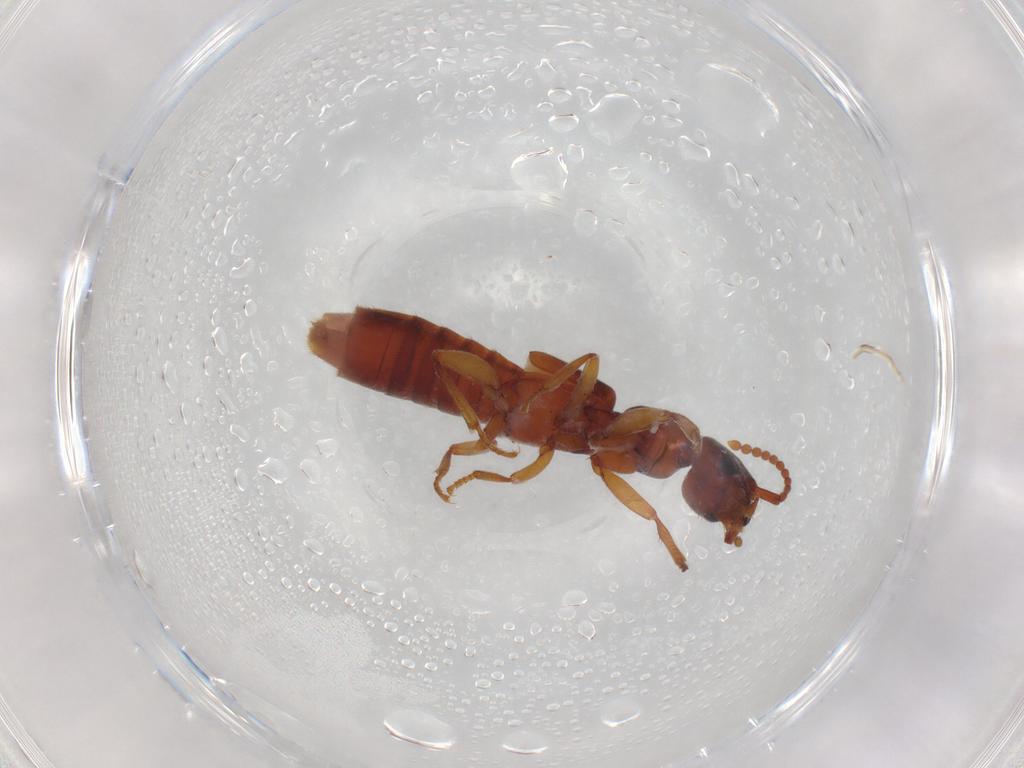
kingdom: Animalia
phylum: Arthropoda
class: Insecta
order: Coleoptera
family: Staphylinidae
